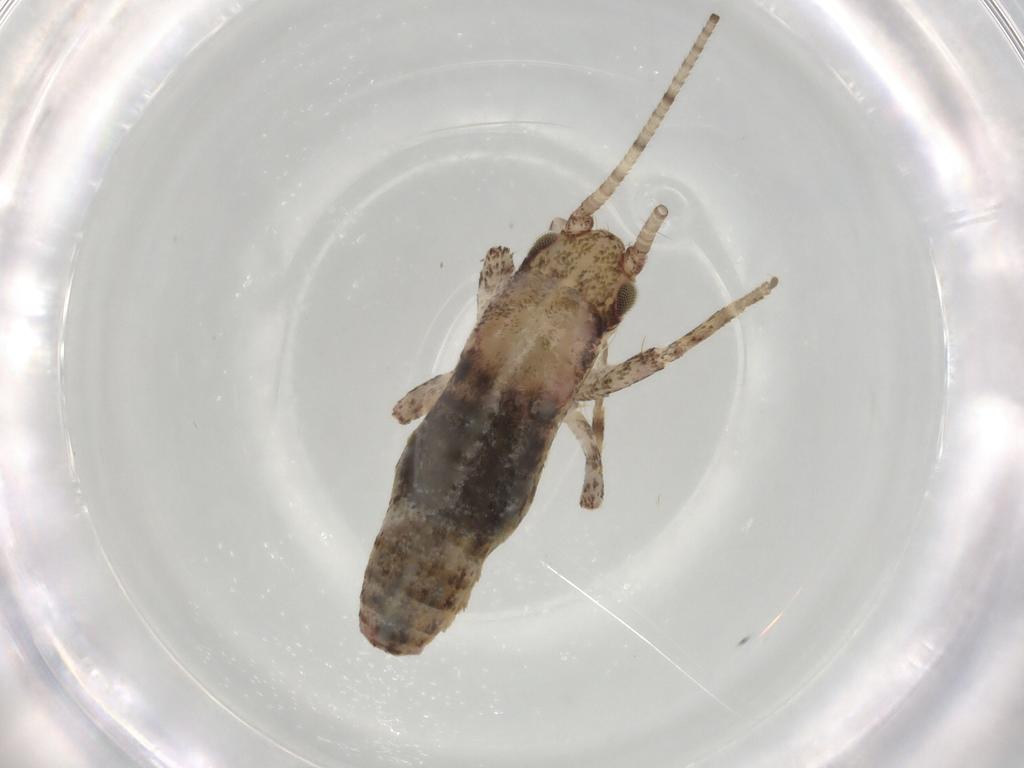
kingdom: Animalia
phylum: Arthropoda
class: Insecta
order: Orthoptera
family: Mogoplistidae
